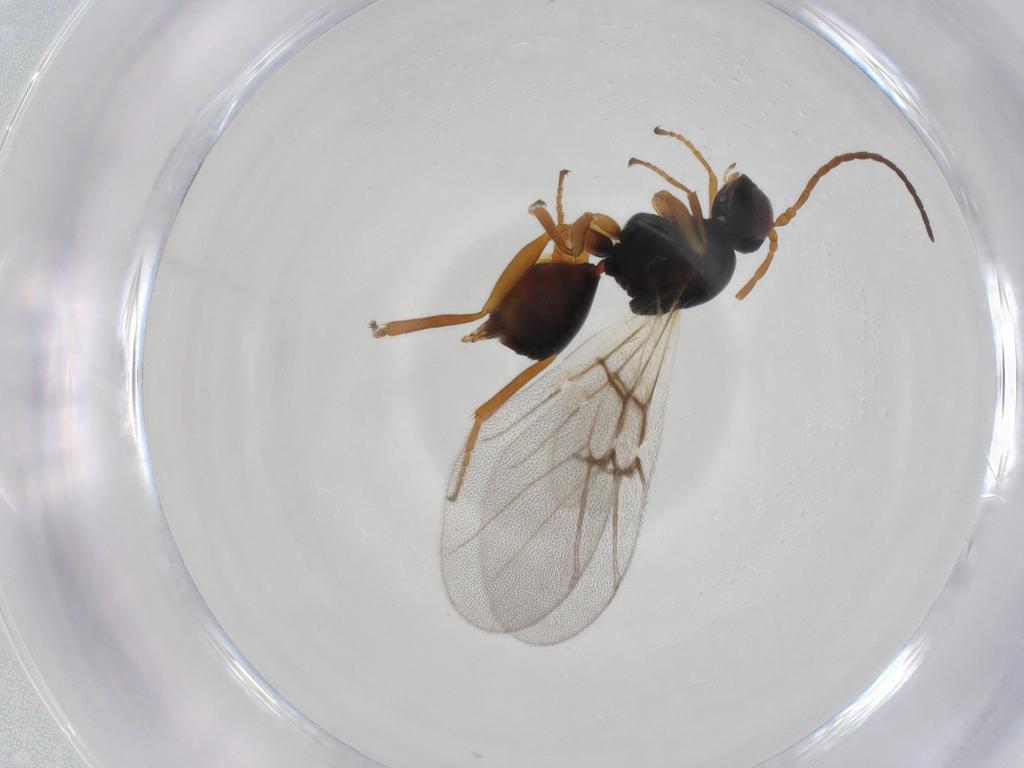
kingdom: Animalia
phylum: Arthropoda
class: Insecta
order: Hymenoptera
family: Cynipidae
